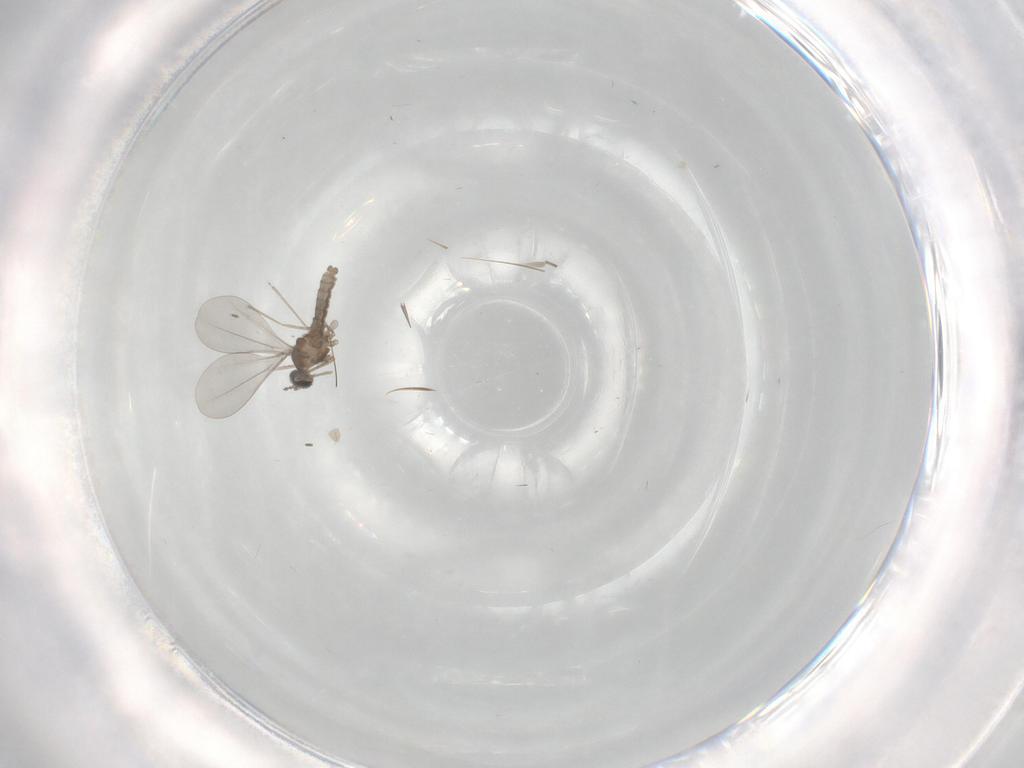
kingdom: Animalia
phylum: Arthropoda
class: Insecta
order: Diptera
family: Cecidomyiidae
